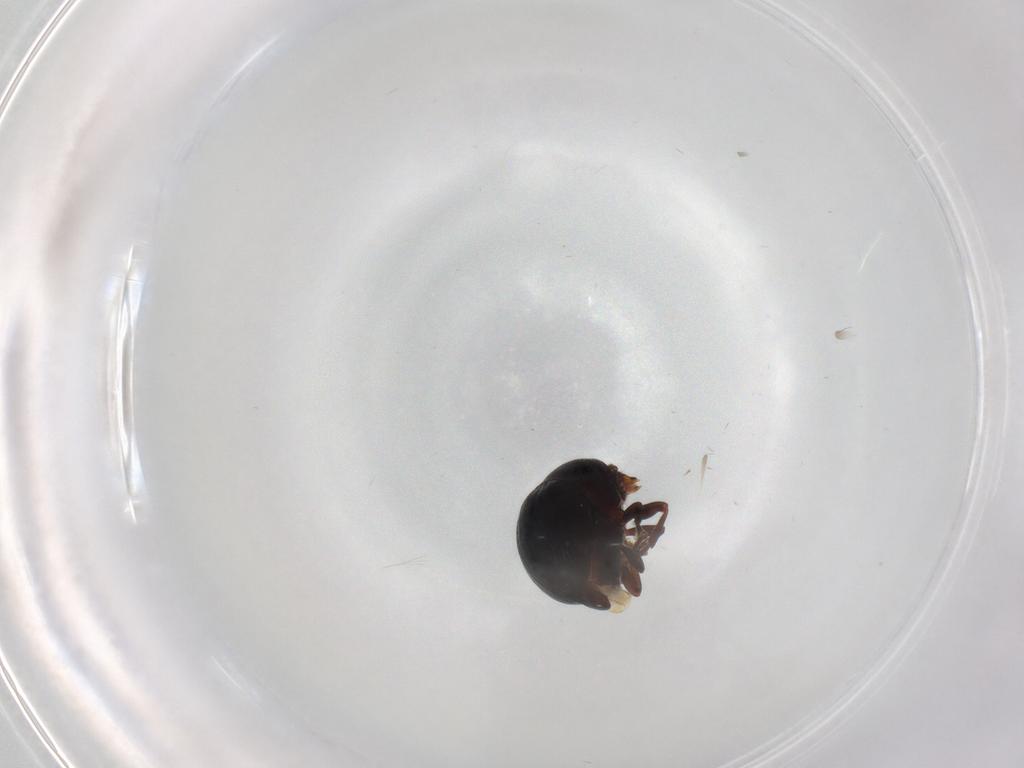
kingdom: Animalia
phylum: Arthropoda
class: Insecta
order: Coleoptera
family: Anthribidae
